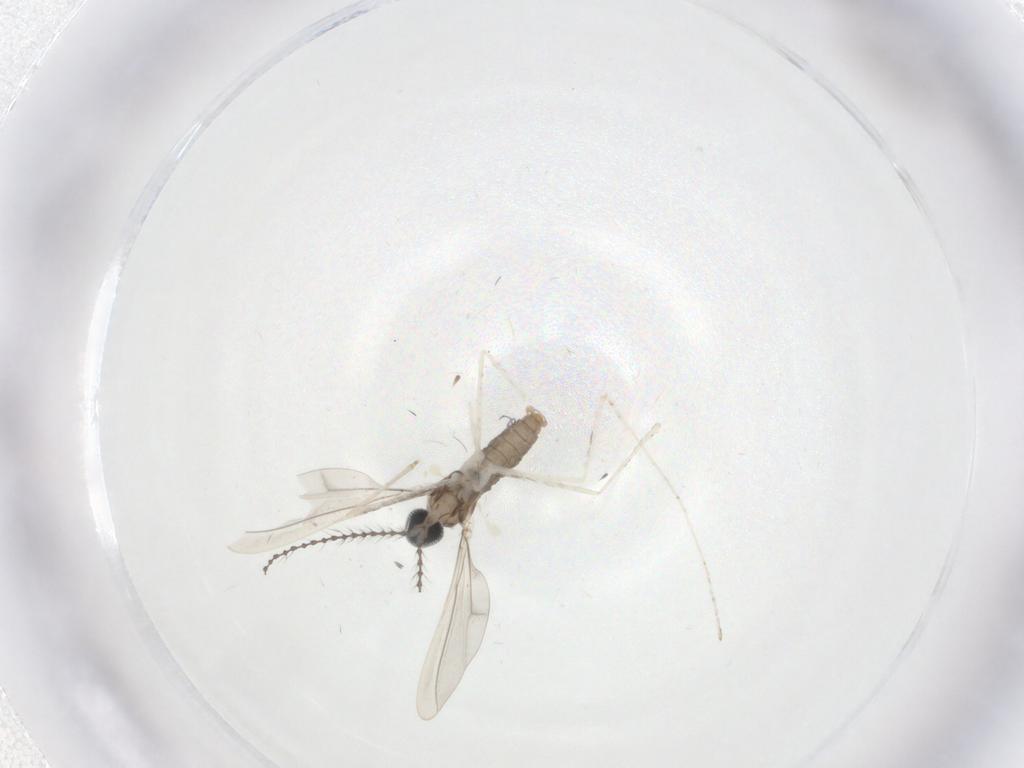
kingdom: Animalia
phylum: Arthropoda
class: Insecta
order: Diptera
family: Cecidomyiidae
